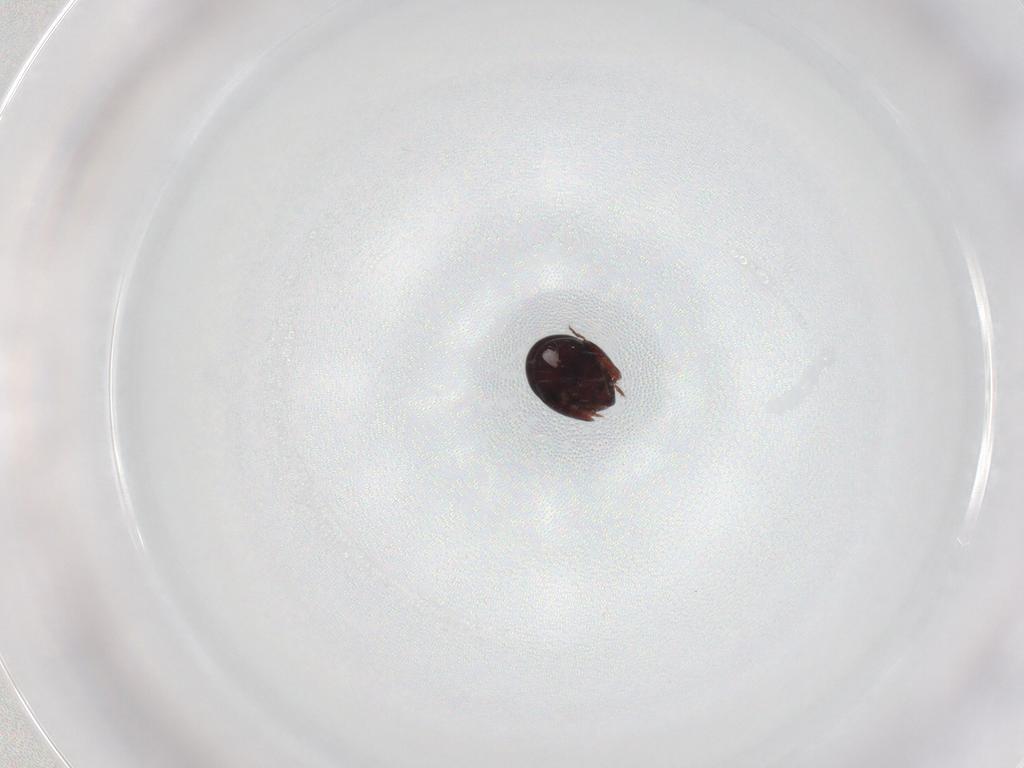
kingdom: Animalia
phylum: Arthropoda
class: Arachnida
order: Sarcoptiformes
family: Galumnidae
